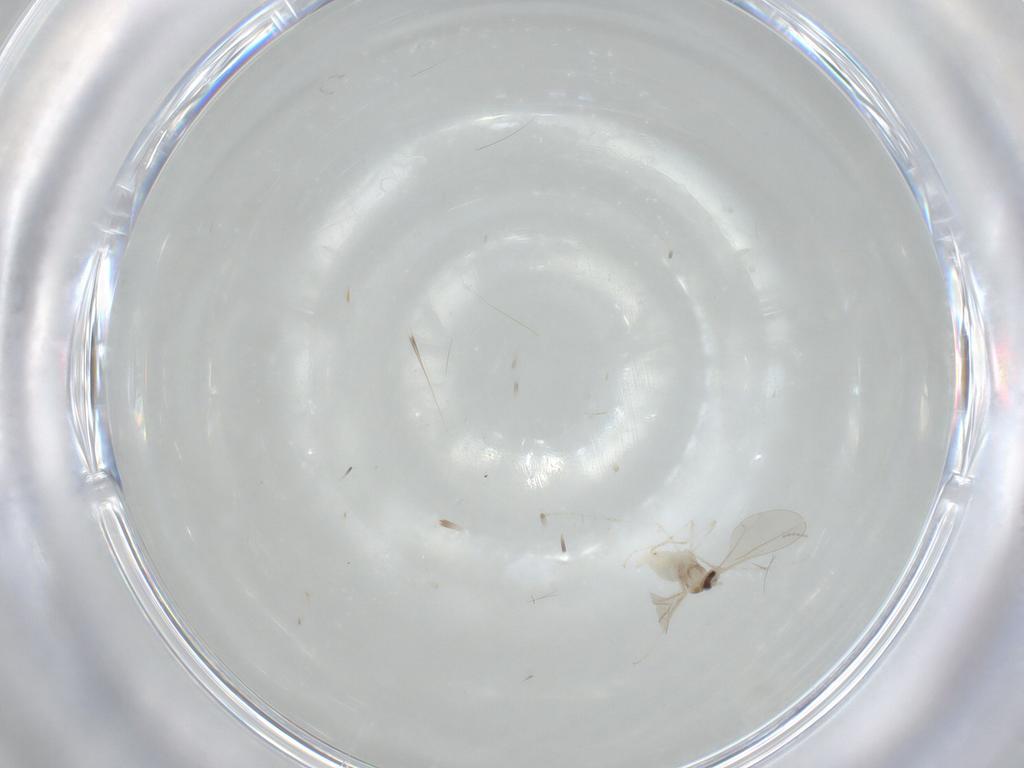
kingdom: Animalia
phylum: Arthropoda
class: Insecta
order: Diptera
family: Cecidomyiidae
